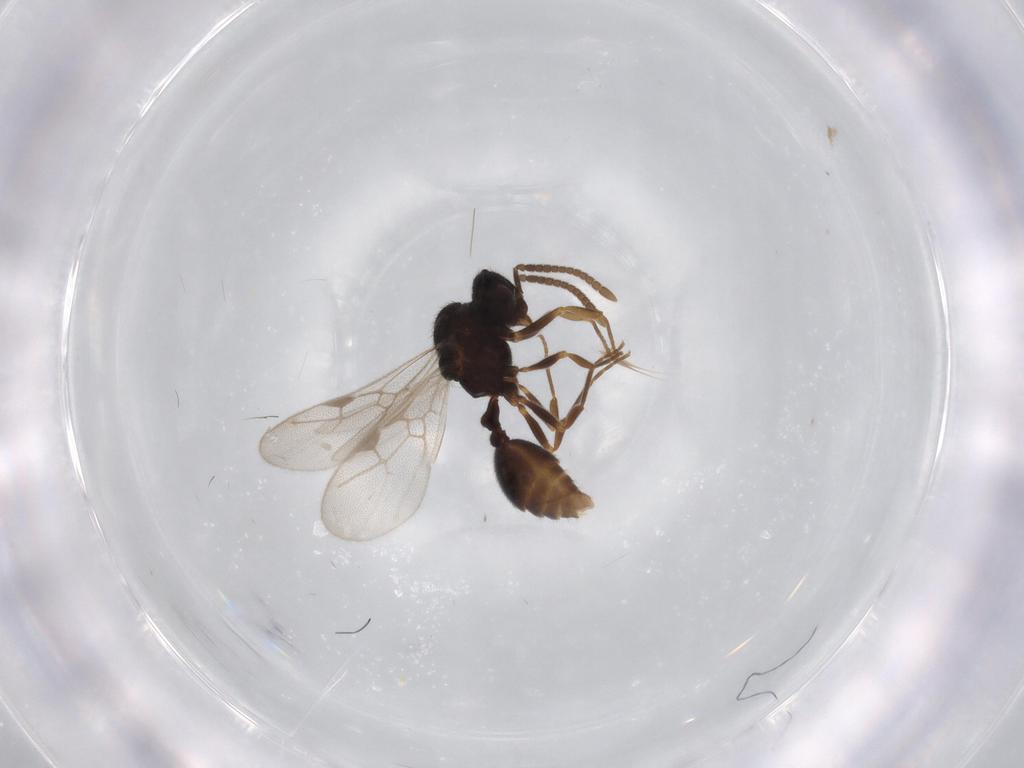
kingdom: Animalia
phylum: Arthropoda
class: Insecta
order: Hymenoptera
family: Formicidae
